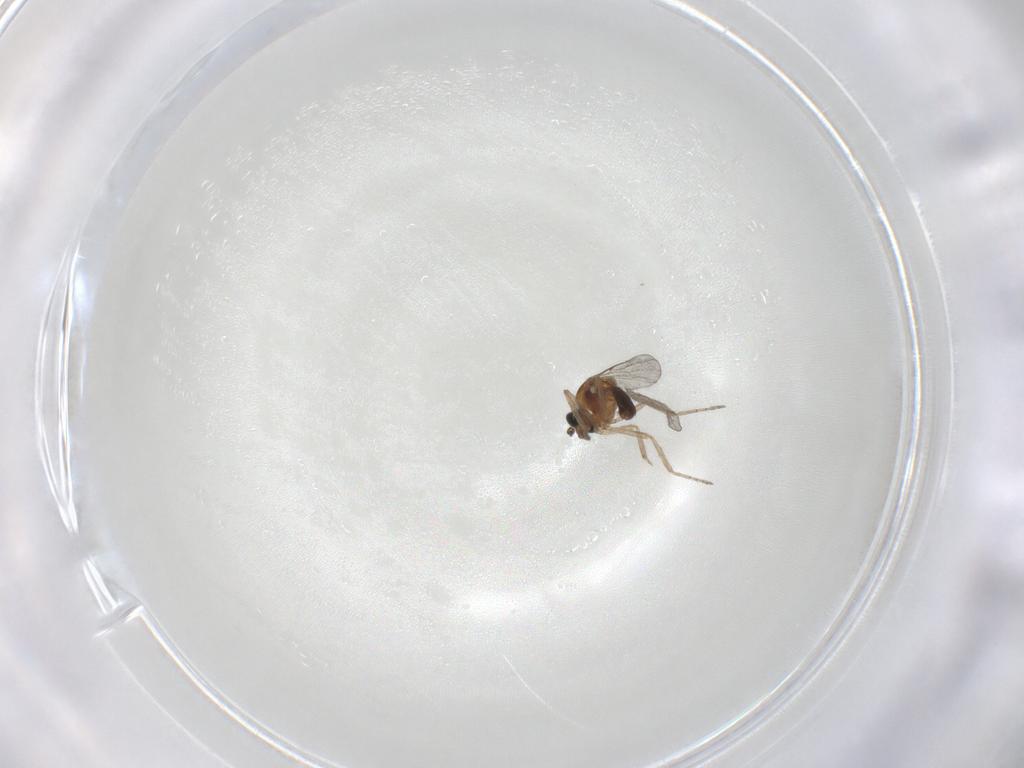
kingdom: Animalia
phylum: Arthropoda
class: Insecta
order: Diptera
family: Ceratopogonidae
